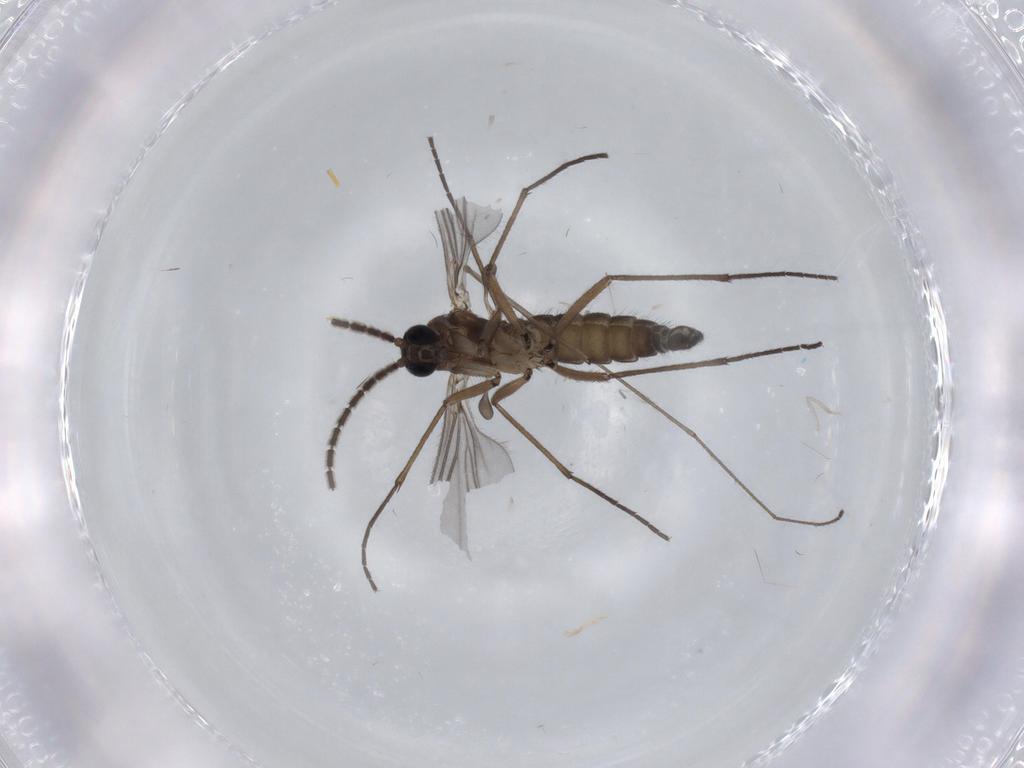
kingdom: Animalia
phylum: Arthropoda
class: Insecta
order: Diptera
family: Cecidomyiidae
